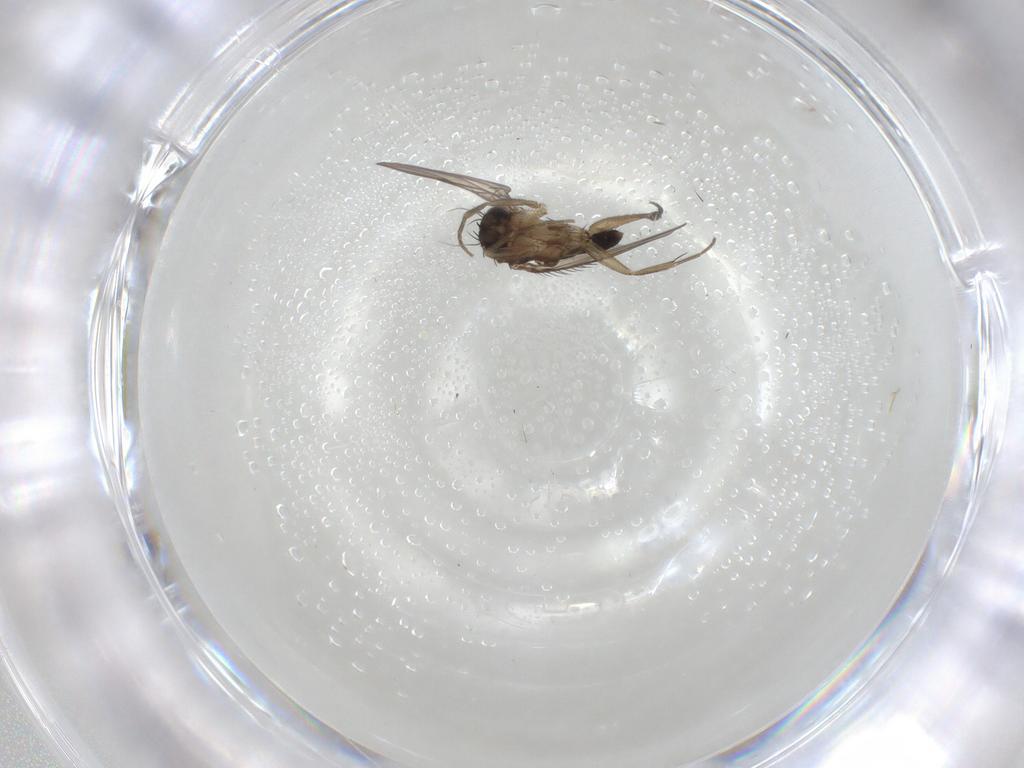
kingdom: Animalia
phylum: Arthropoda
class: Insecta
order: Diptera
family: Phoridae
